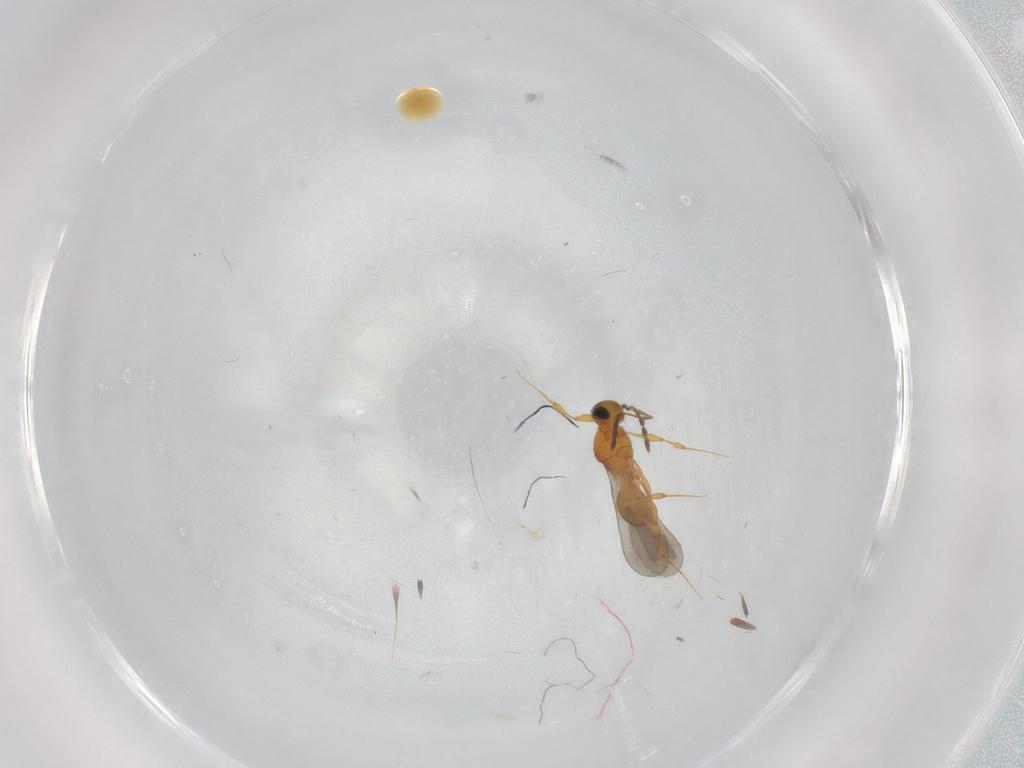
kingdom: Animalia
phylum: Arthropoda
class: Insecta
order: Hymenoptera
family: Platygastridae
